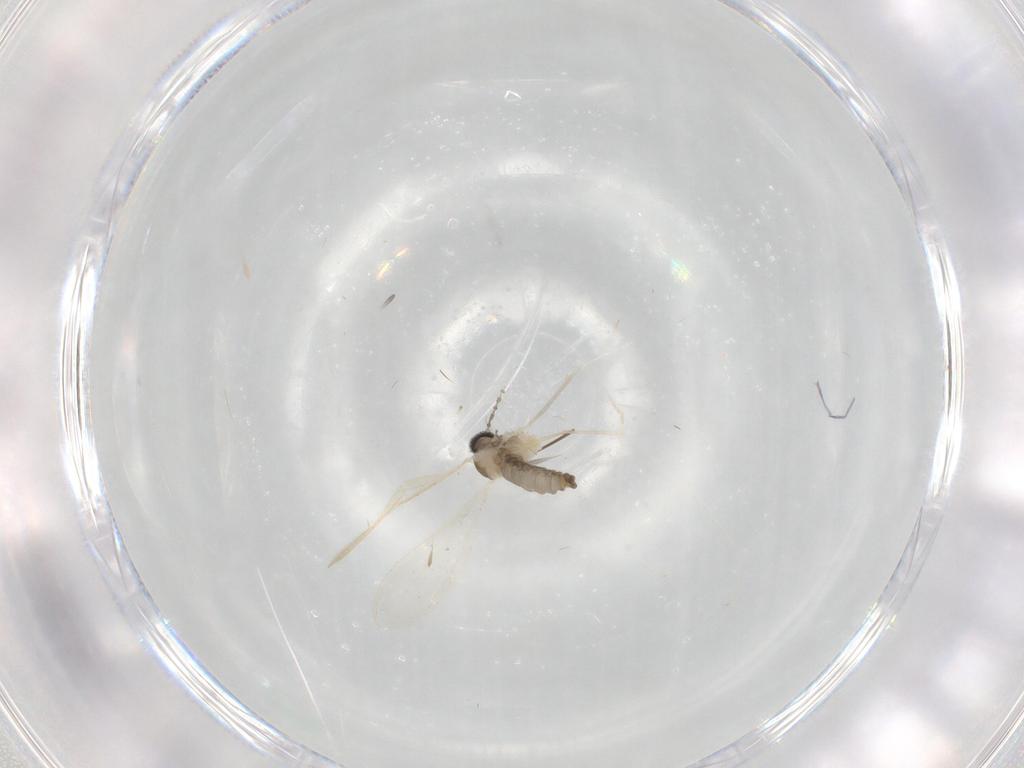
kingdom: Animalia
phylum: Arthropoda
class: Insecta
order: Diptera
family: Cecidomyiidae
